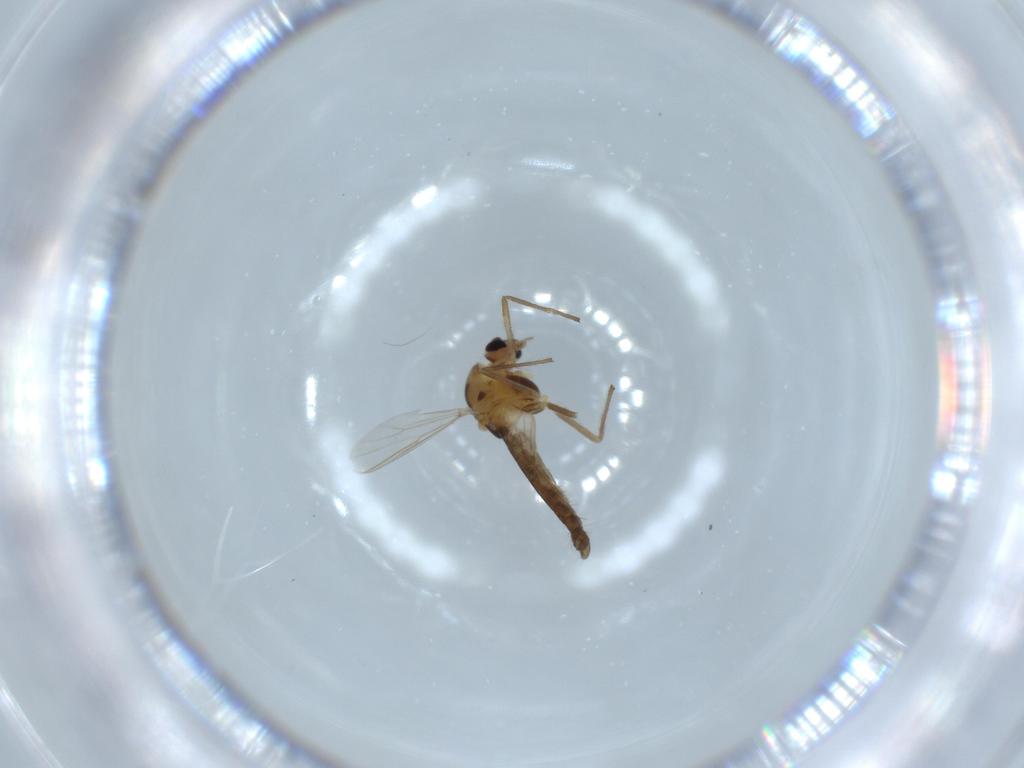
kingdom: Animalia
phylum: Arthropoda
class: Insecta
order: Diptera
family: Chironomidae
